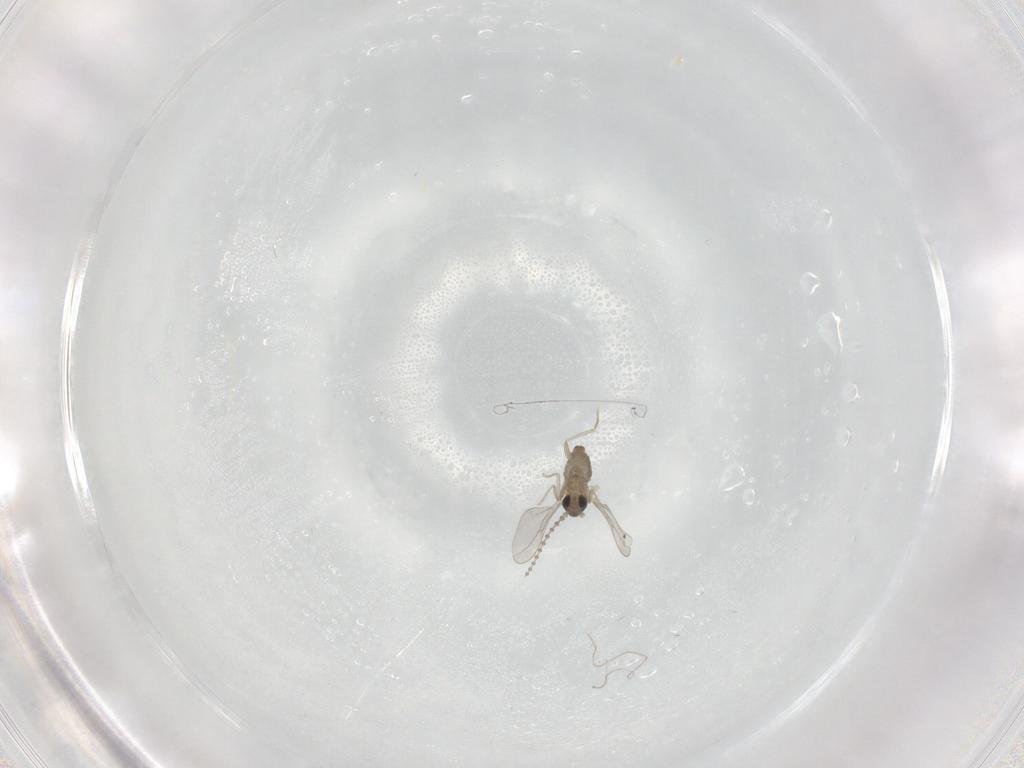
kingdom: Animalia
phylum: Arthropoda
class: Insecta
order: Diptera
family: Cecidomyiidae
